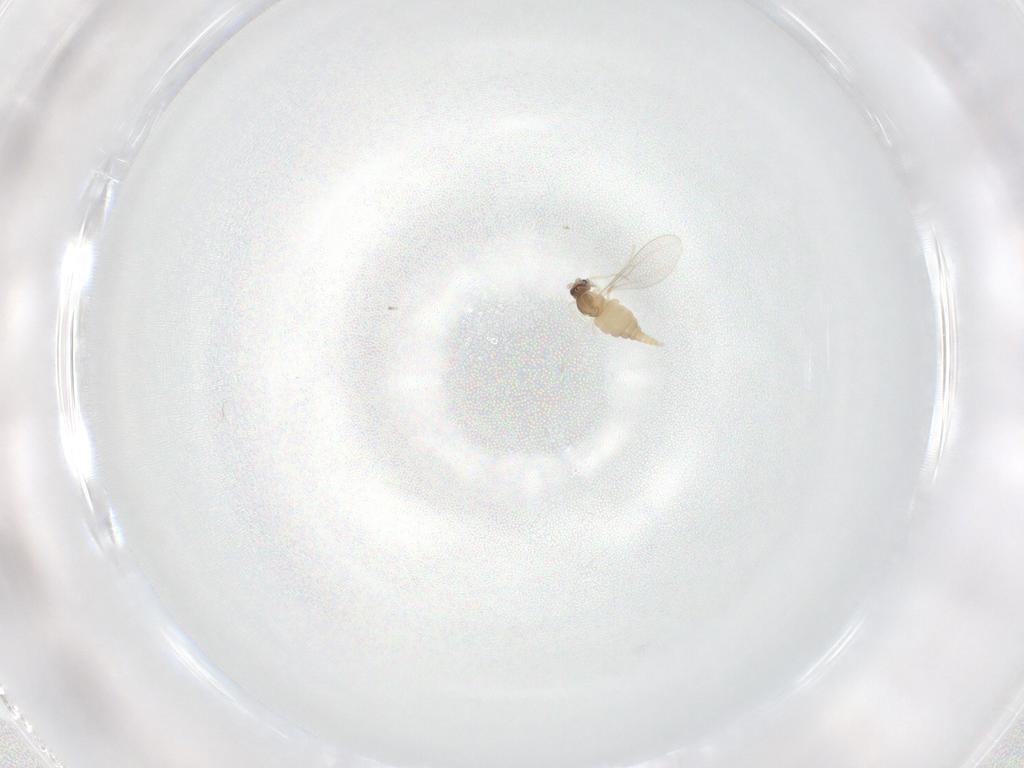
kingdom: Animalia
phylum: Arthropoda
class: Insecta
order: Diptera
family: Cecidomyiidae
